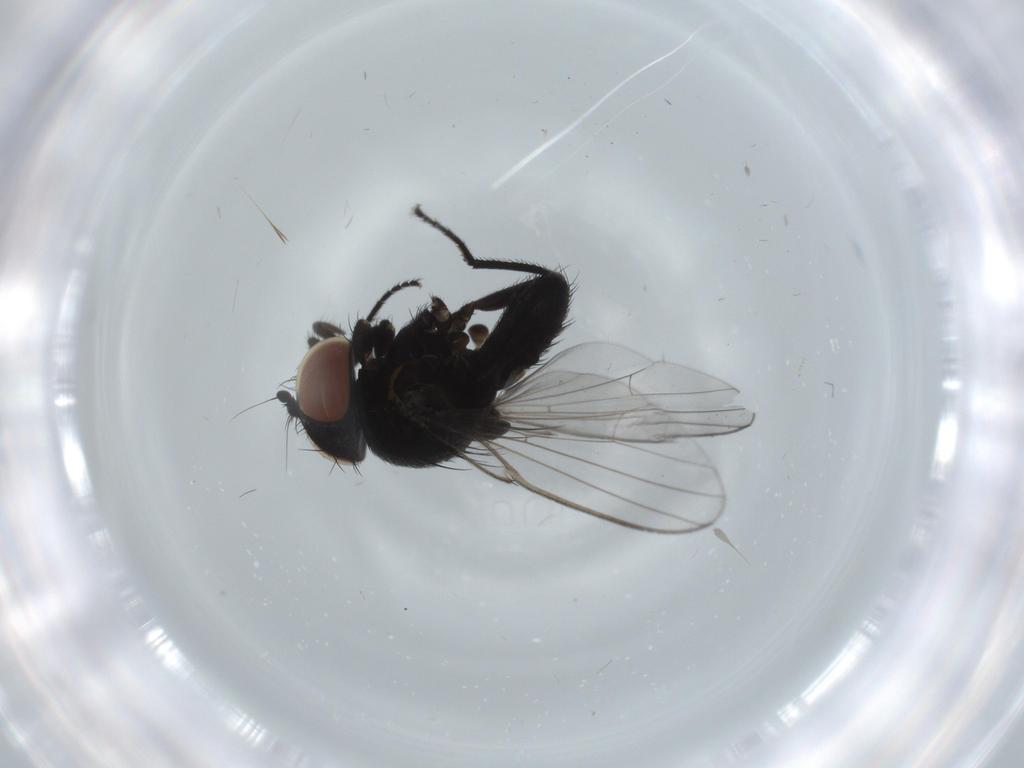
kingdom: Animalia
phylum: Arthropoda
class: Insecta
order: Diptera
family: Milichiidae
